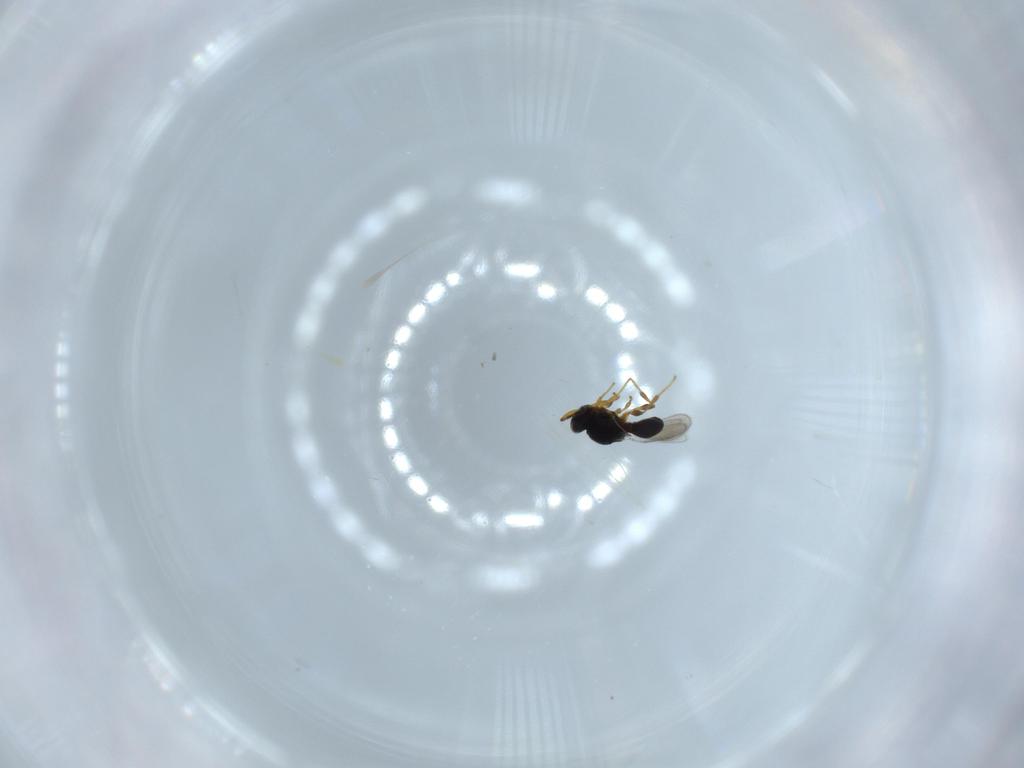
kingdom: Animalia
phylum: Arthropoda
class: Insecta
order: Hymenoptera
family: Platygastridae
